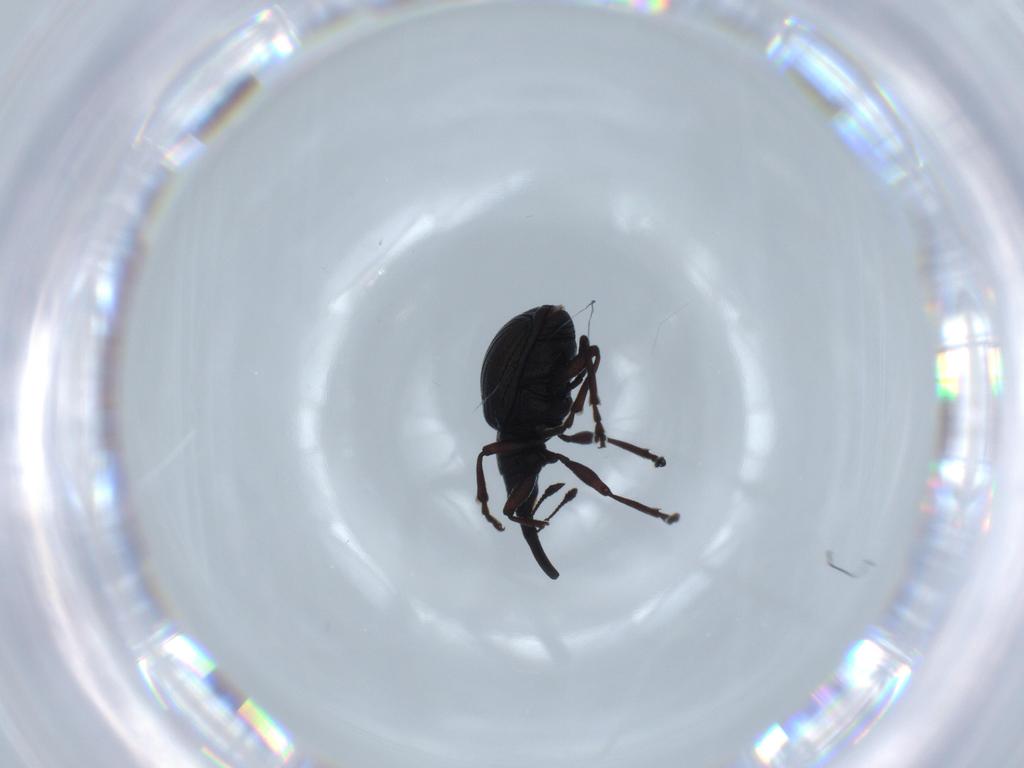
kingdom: Animalia
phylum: Arthropoda
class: Insecta
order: Coleoptera
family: Brentidae
